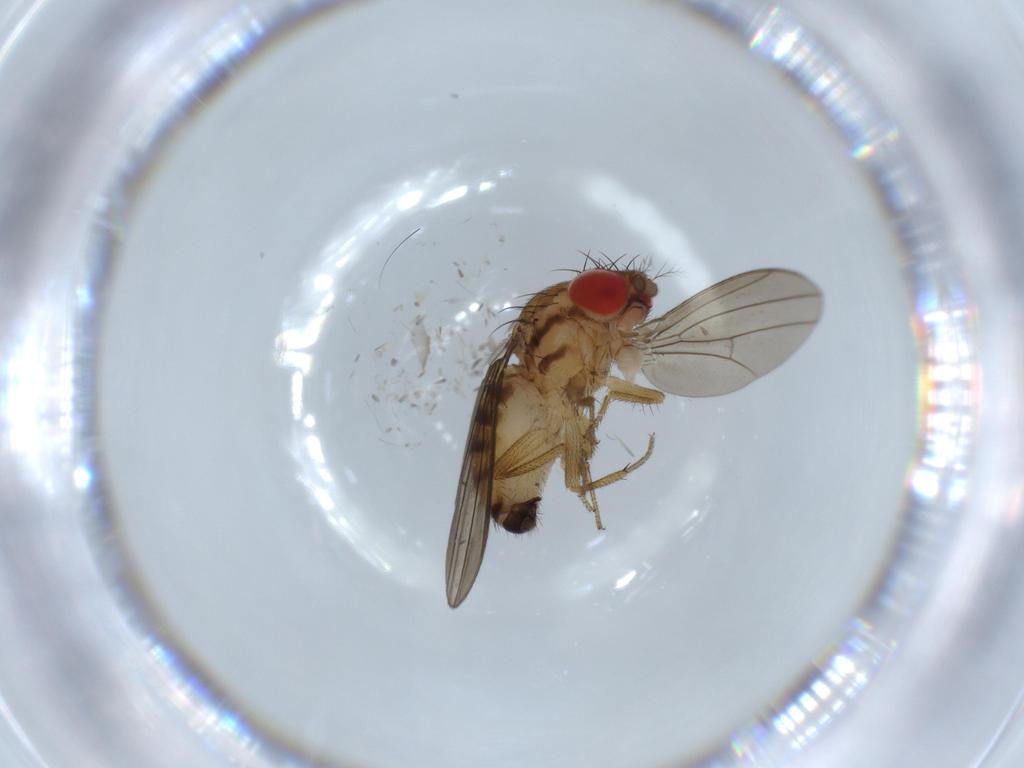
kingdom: Animalia
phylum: Arthropoda
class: Insecta
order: Diptera
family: Drosophilidae
